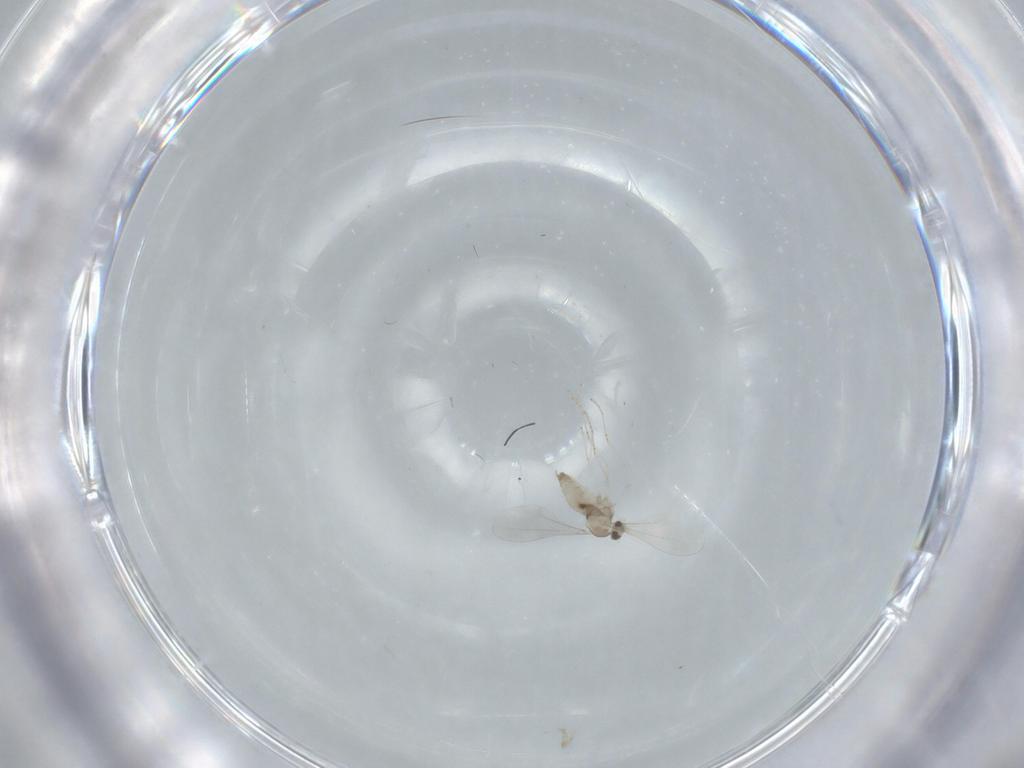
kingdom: Animalia
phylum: Arthropoda
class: Insecta
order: Diptera
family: Cecidomyiidae
